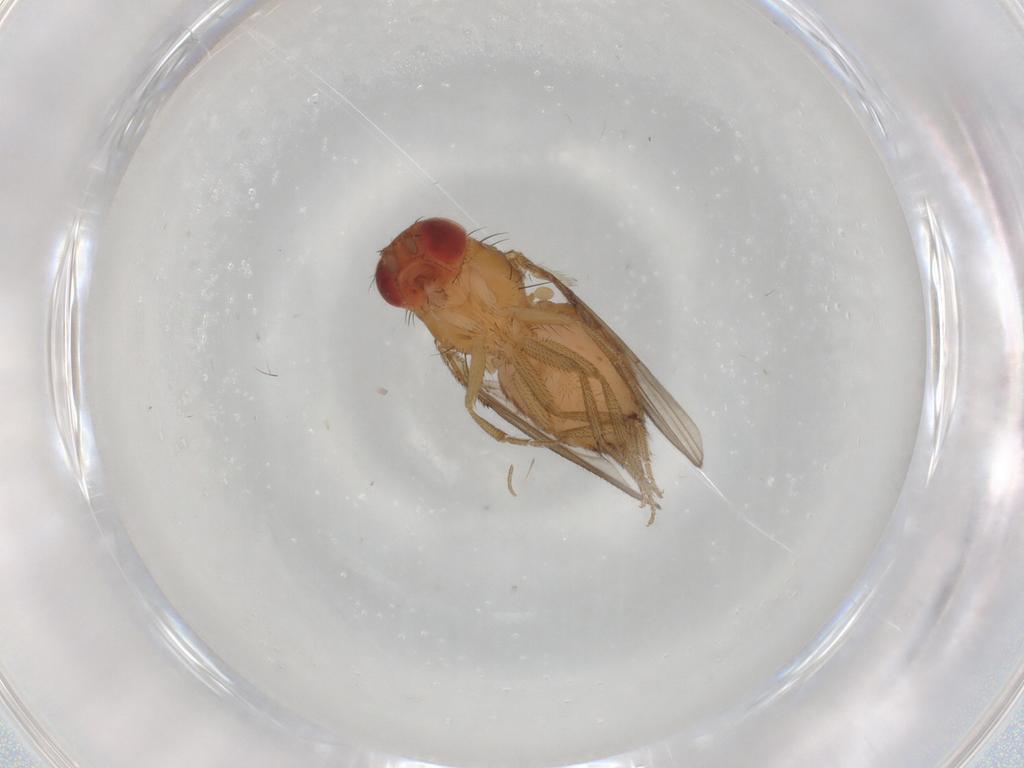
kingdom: Animalia
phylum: Arthropoda
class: Insecta
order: Diptera
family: Drosophilidae
